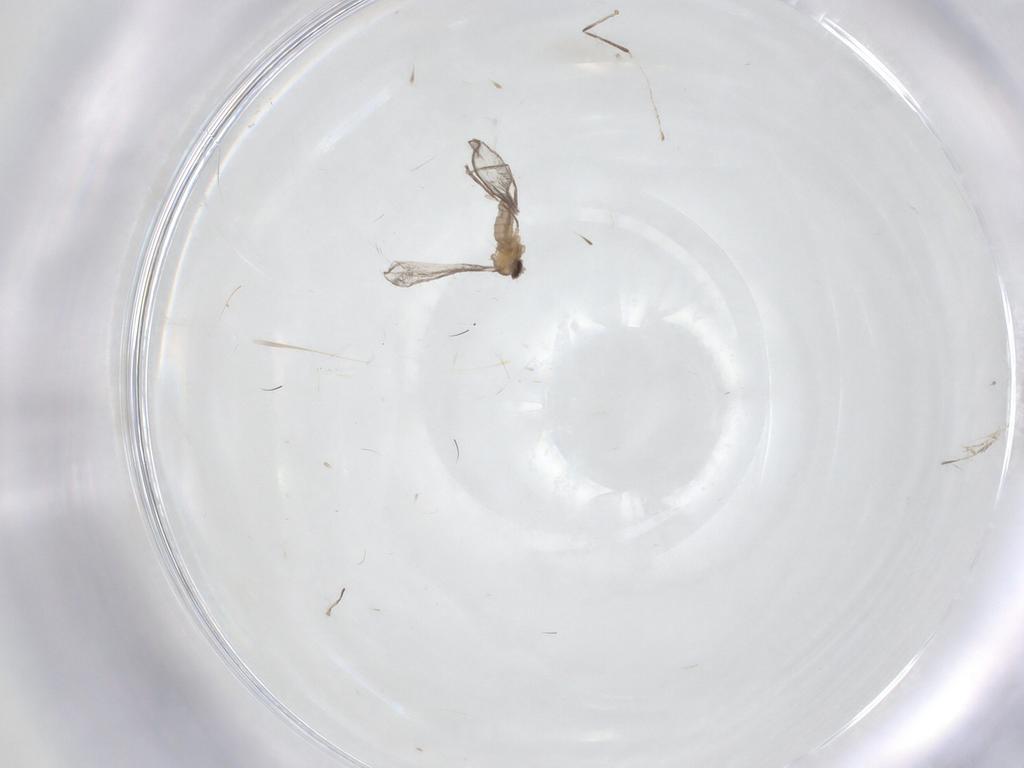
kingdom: Animalia
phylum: Arthropoda
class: Insecta
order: Diptera
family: Cecidomyiidae
